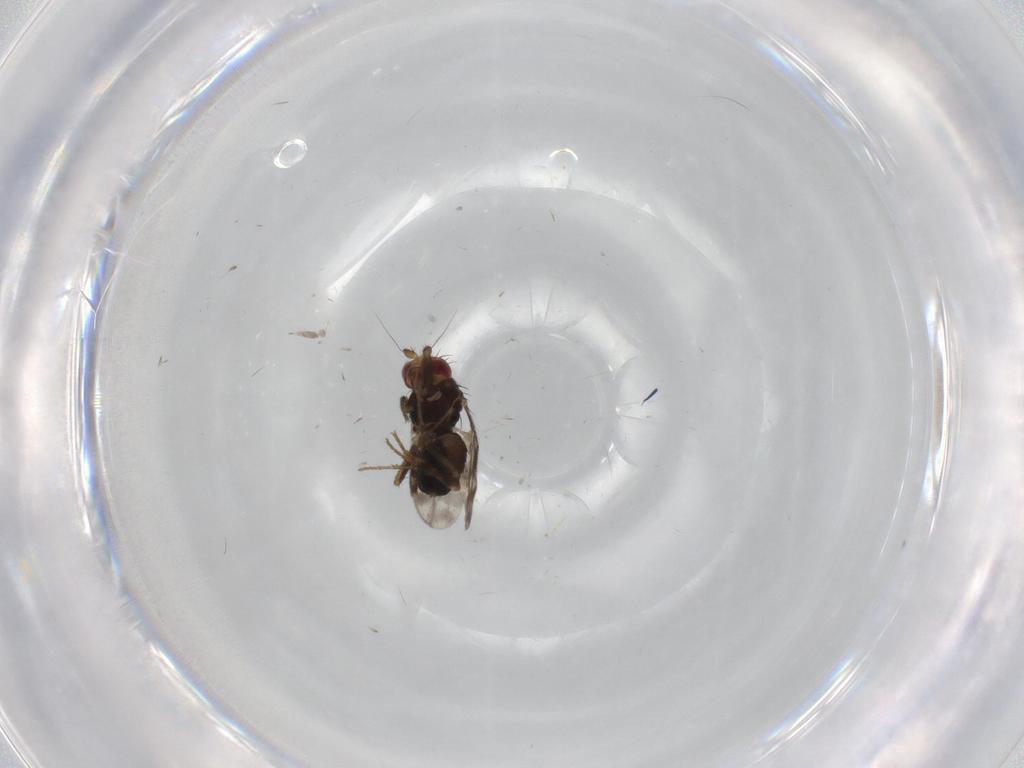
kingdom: Animalia
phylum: Arthropoda
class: Insecta
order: Diptera
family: Sphaeroceridae
